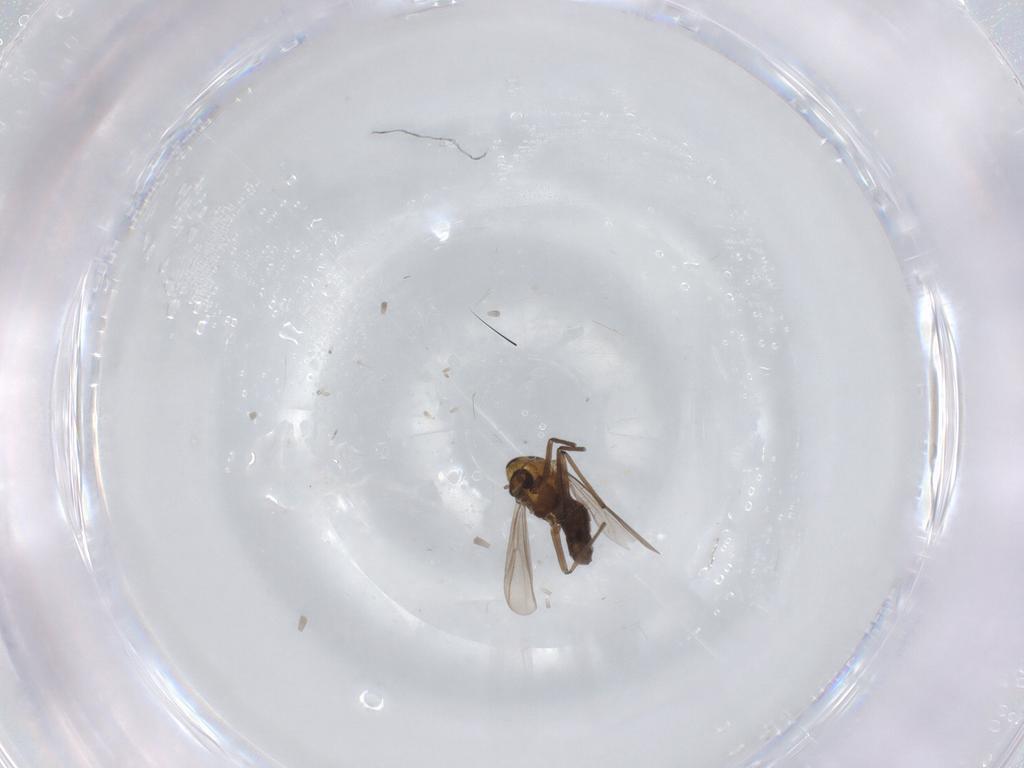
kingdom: Animalia
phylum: Arthropoda
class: Insecta
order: Diptera
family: Chironomidae
